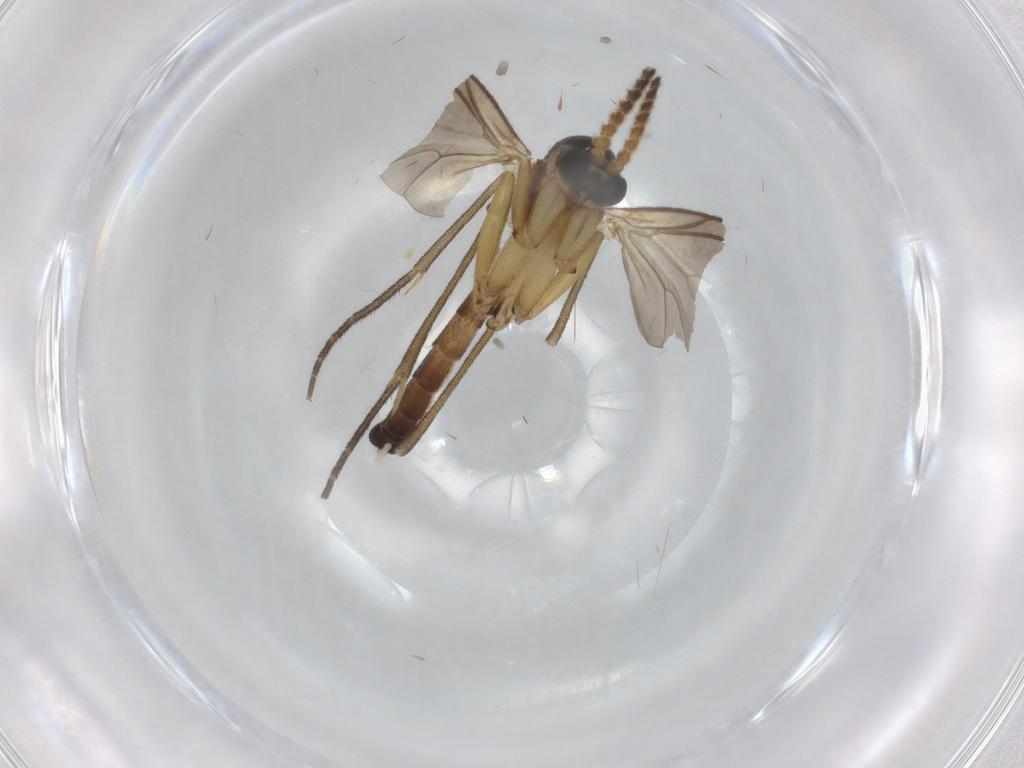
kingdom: Animalia
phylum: Arthropoda
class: Insecta
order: Diptera
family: Mycetophilidae
